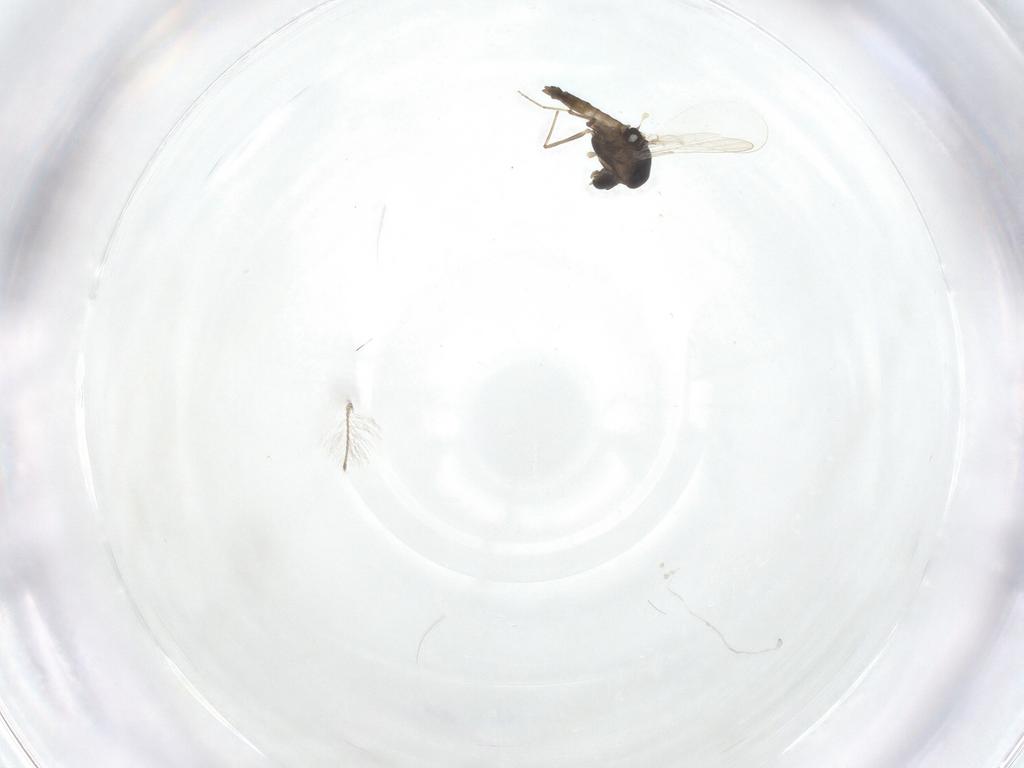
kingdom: Animalia
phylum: Arthropoda
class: Insecta
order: Diptera
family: Chironomidae
